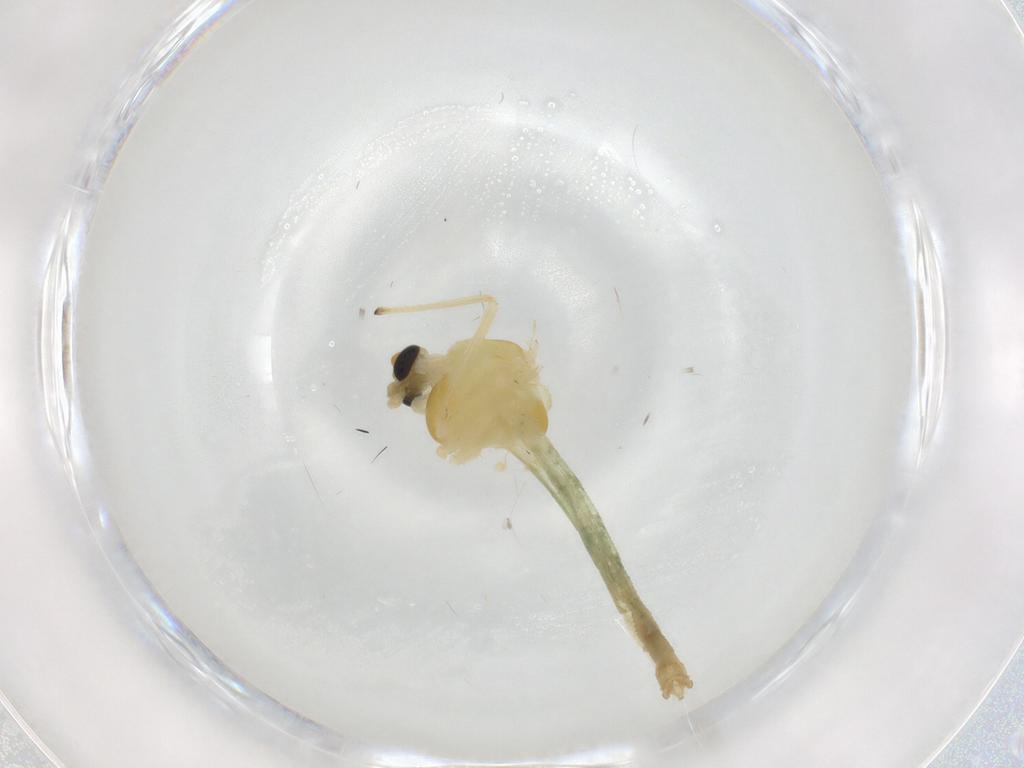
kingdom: Animalia
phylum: Arthropoda
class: Insecta
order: Diptera
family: Chironomidae
